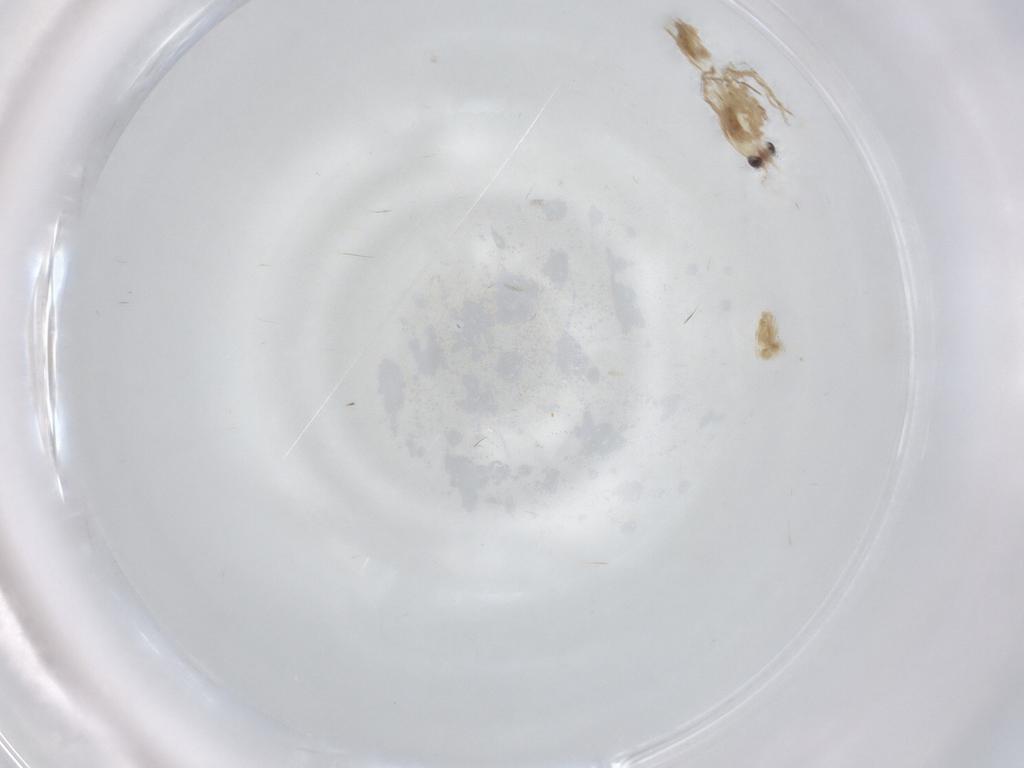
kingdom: Animalia
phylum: Arthropoda
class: Insecta
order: Diptera
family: Chironomidae
